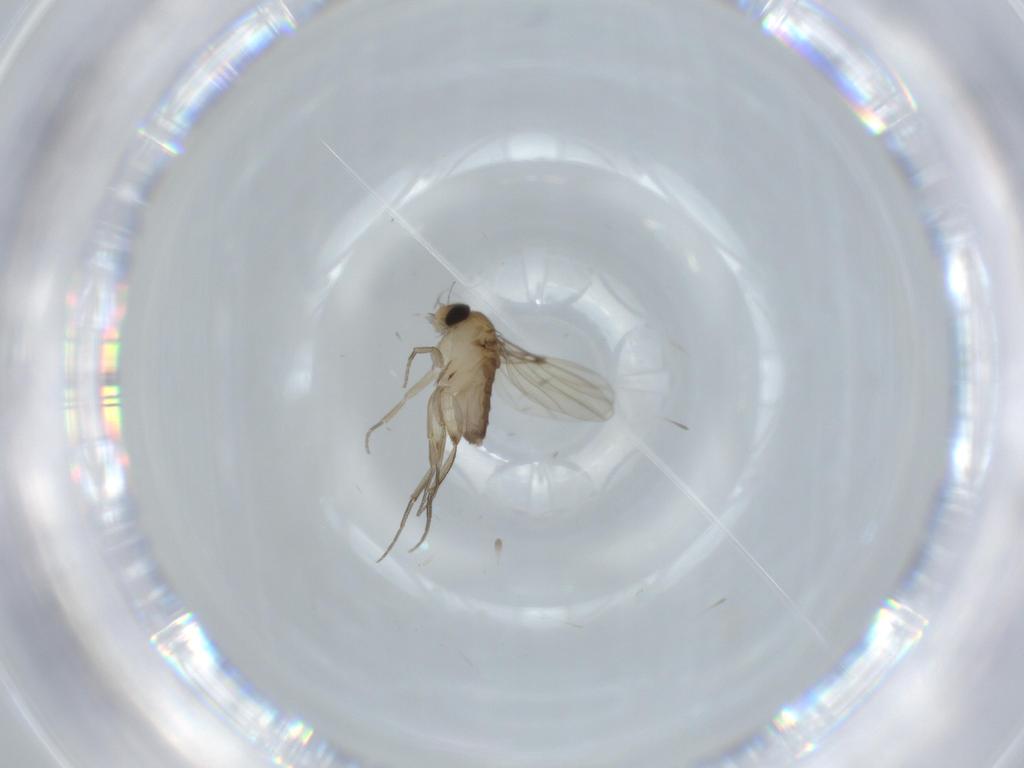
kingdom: Animalia
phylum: Arthropoda
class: Insecta
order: Diptera
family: Phoridae
